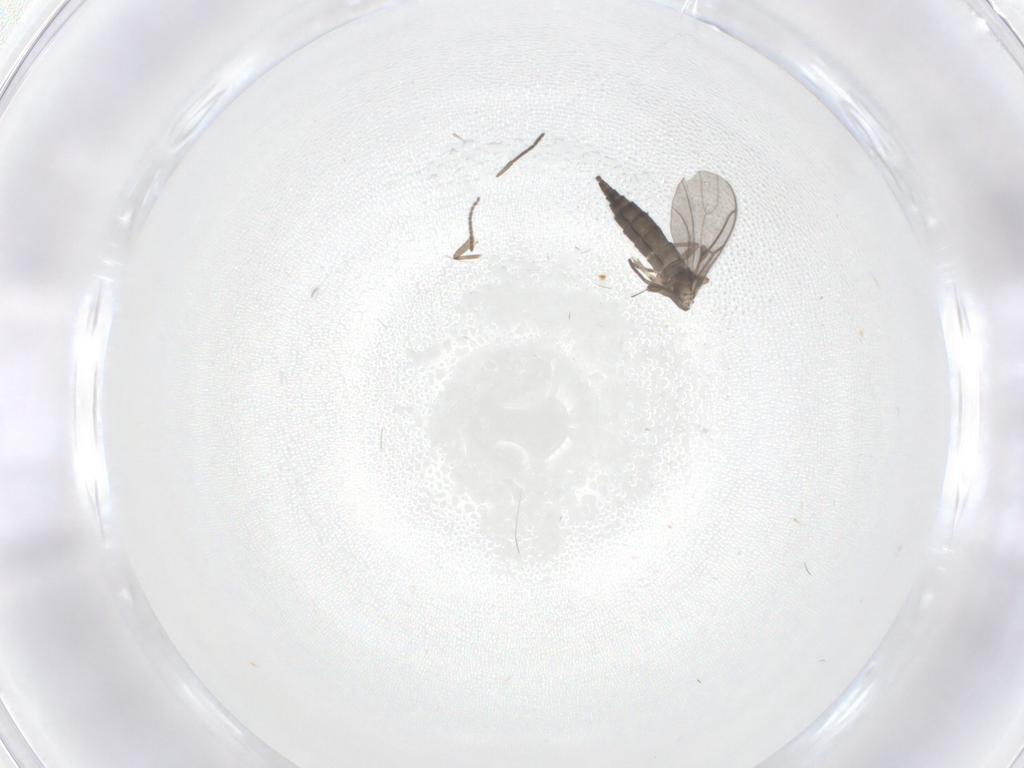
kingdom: Animalia
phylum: Arthropoda
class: Insecta
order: Diptera
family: Sciaridae
